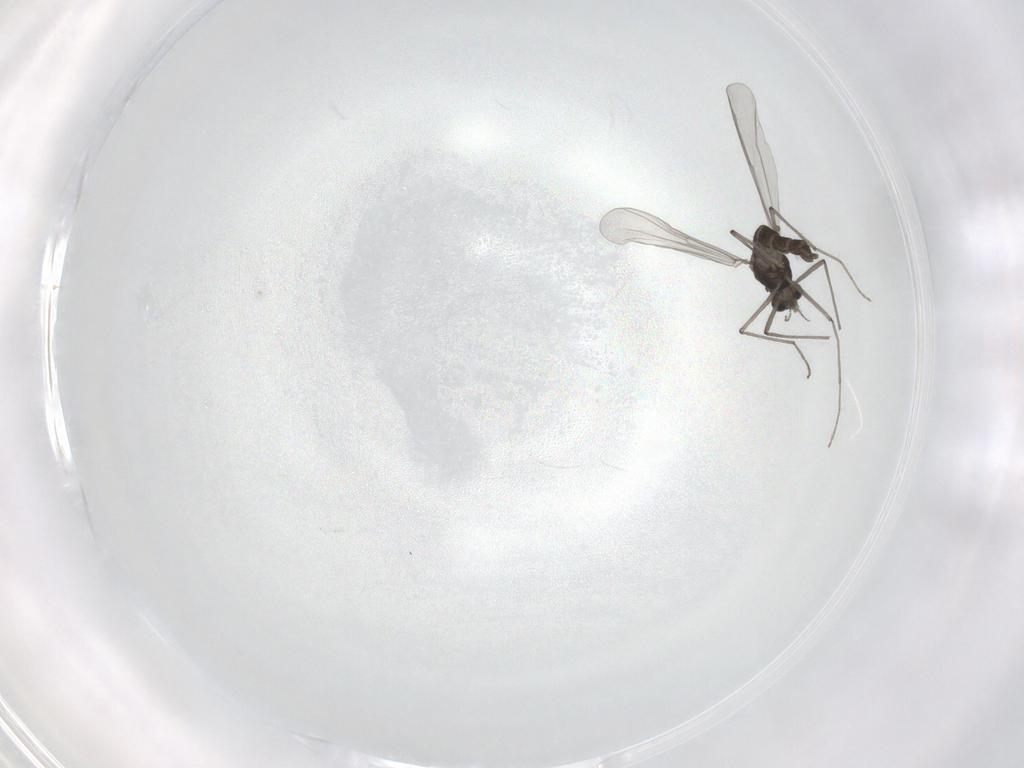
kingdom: Animalia
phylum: Arthropoda
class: Insecta
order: Diptera
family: Chironomidae
